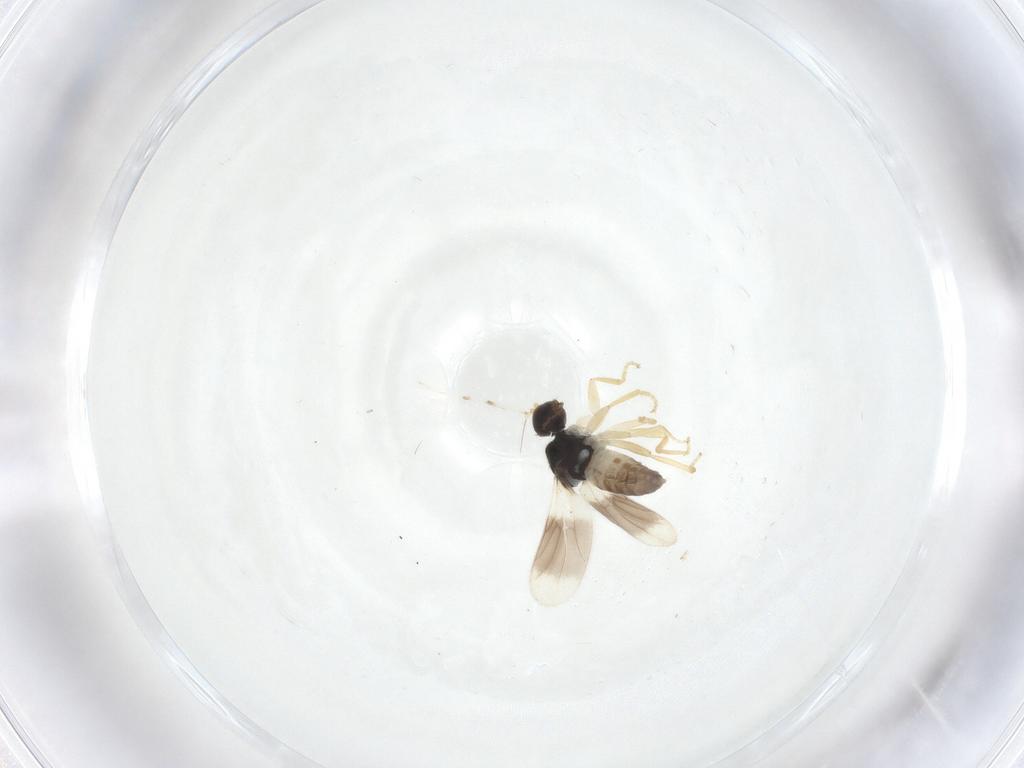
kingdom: Animalia
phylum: Arthropoda
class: Insecta
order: Diptera
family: Hybotidae
